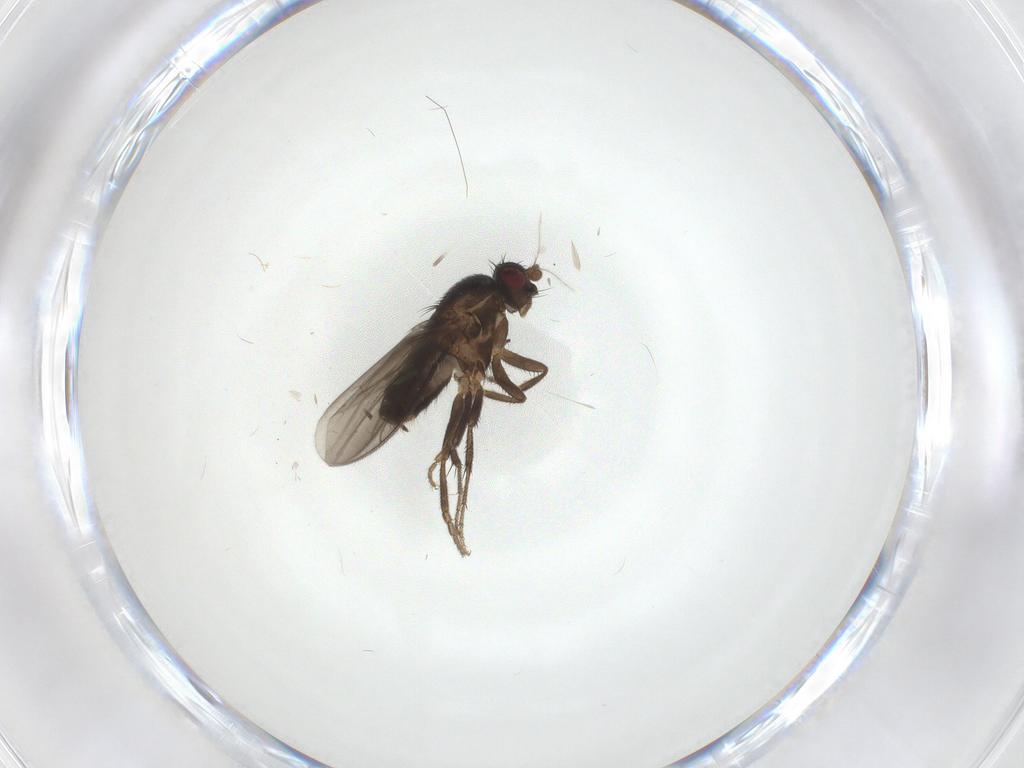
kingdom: Animalia
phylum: Arthropoda
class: Insecta
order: Diptera
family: Sphaeroceridae
